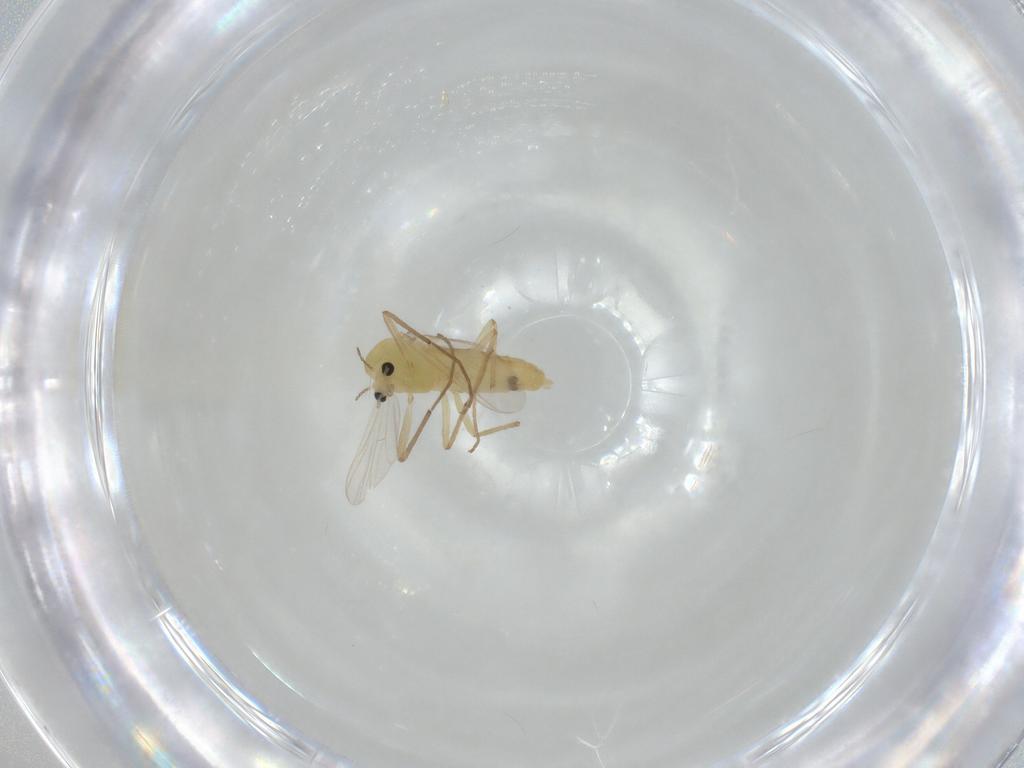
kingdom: Animalia
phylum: Arthropoda
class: Insecta
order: Diptera
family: Chironomidae
